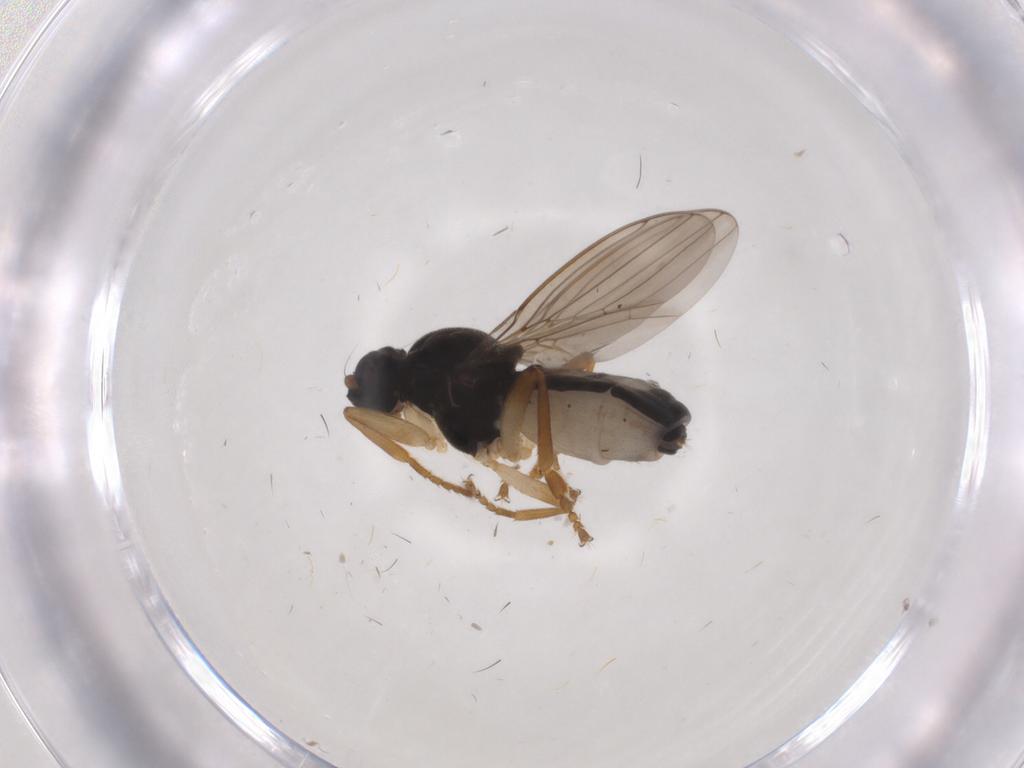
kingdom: Animalia
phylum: Arthropoda
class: Insecta
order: Diptera
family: Sphaeroceridae
